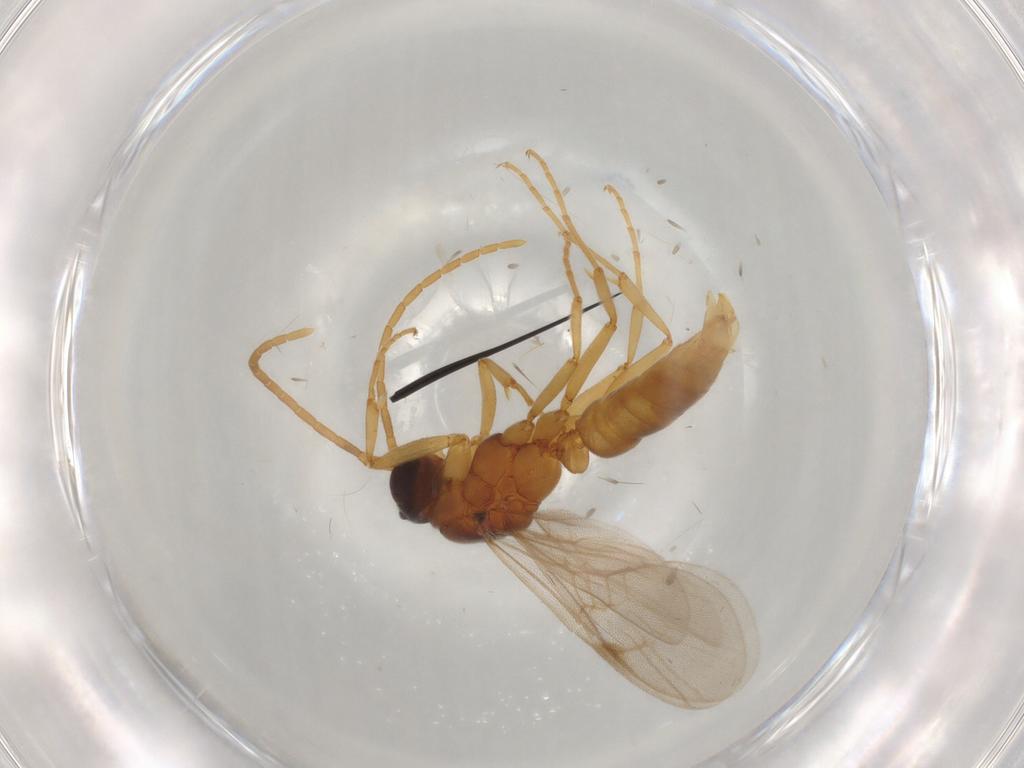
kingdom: Animalia
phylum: Arthropoda
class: Insecta
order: Hymenoptera
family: Formicidae
